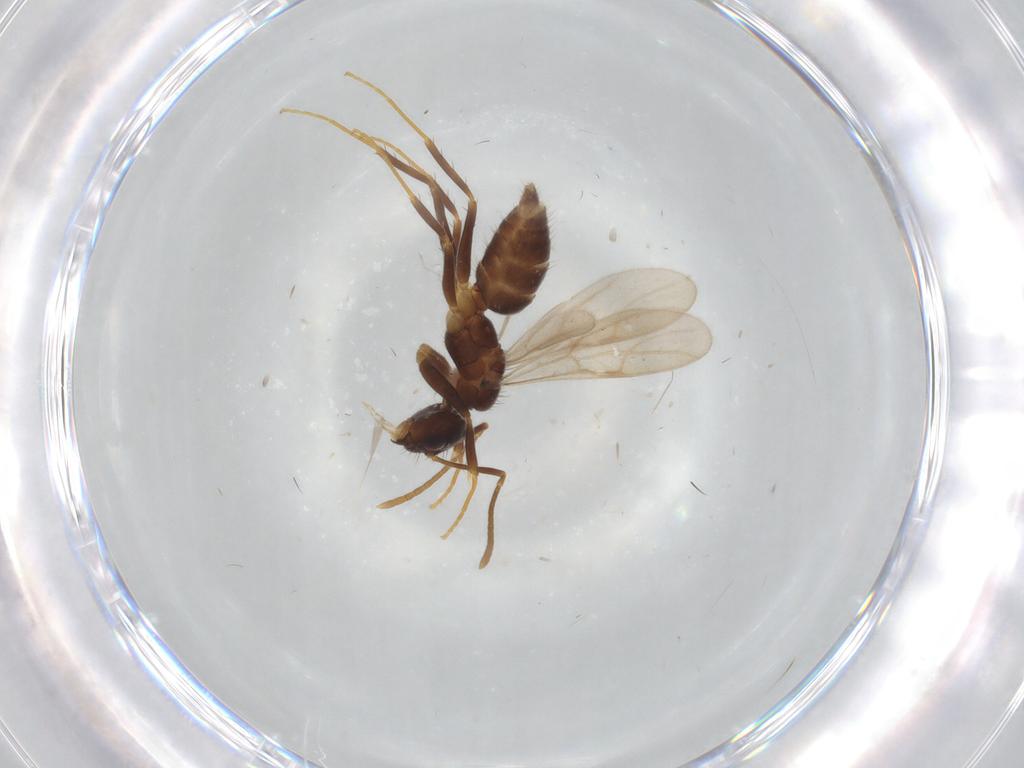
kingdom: Animalia
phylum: Arthropoda
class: Insecta
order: Hymenoptera
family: Formicidae
